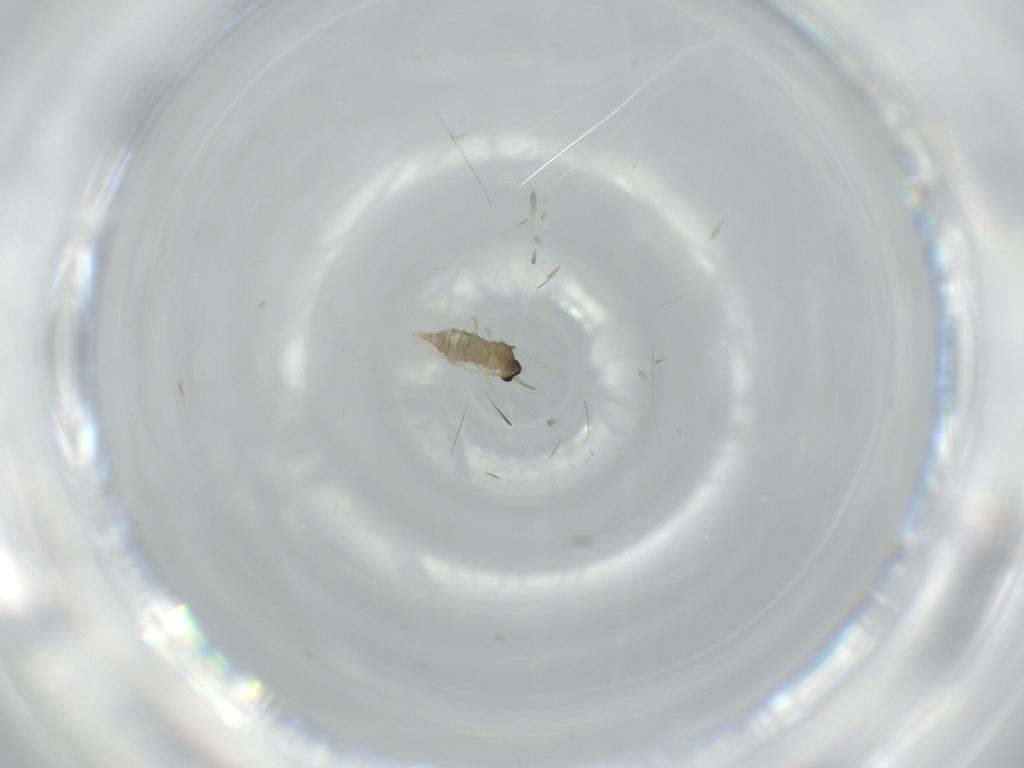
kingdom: Animalia
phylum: Arthropoda
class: Insecta
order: Diptera
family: Cecidomyiidae
